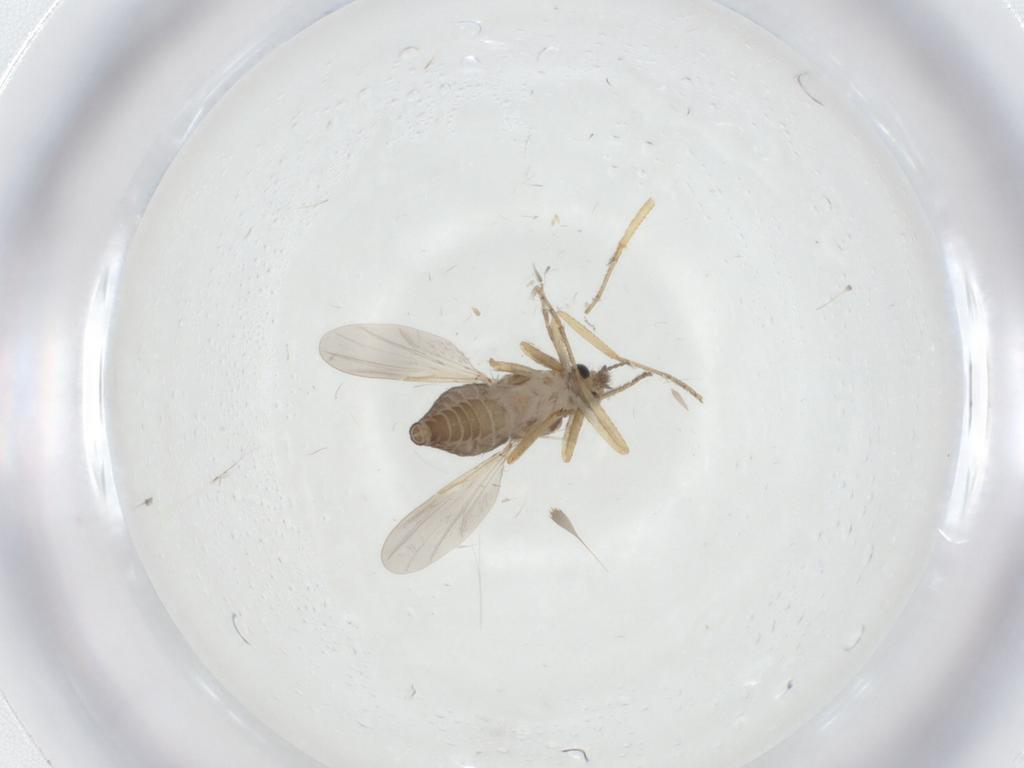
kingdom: Animalia
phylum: Arthropoda
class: Insecta
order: Diptera
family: Ceratopogonidae
